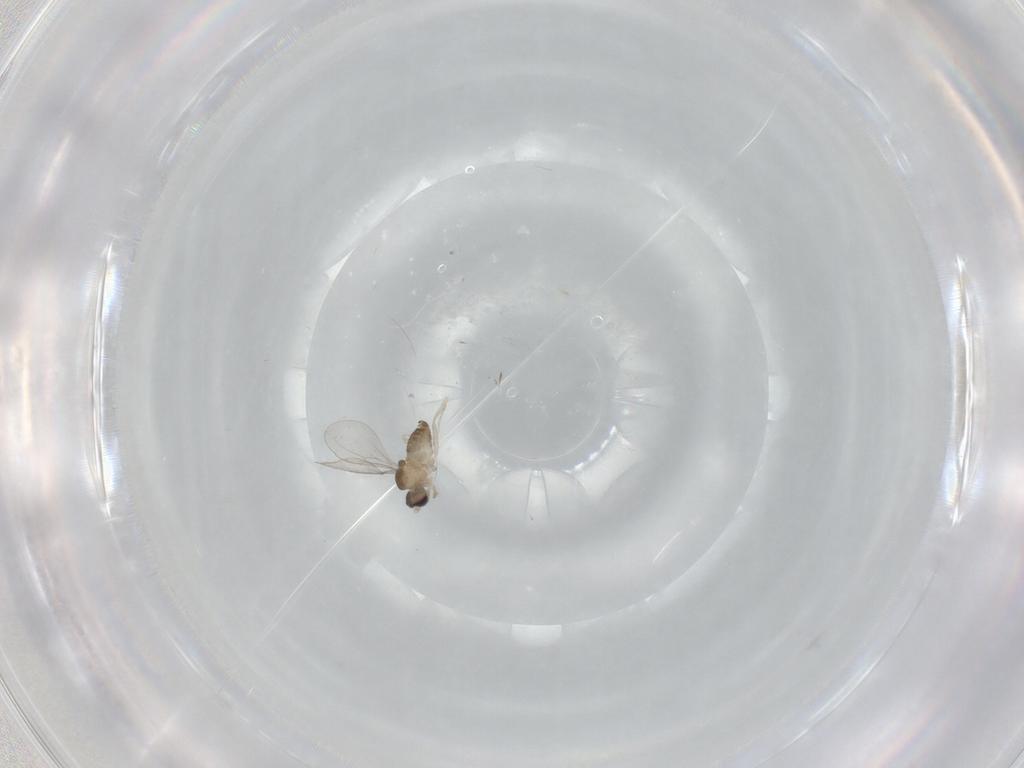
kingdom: Animalia
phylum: Arthropoda
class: Insecta
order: Diptera
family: Cecidomyiidae
